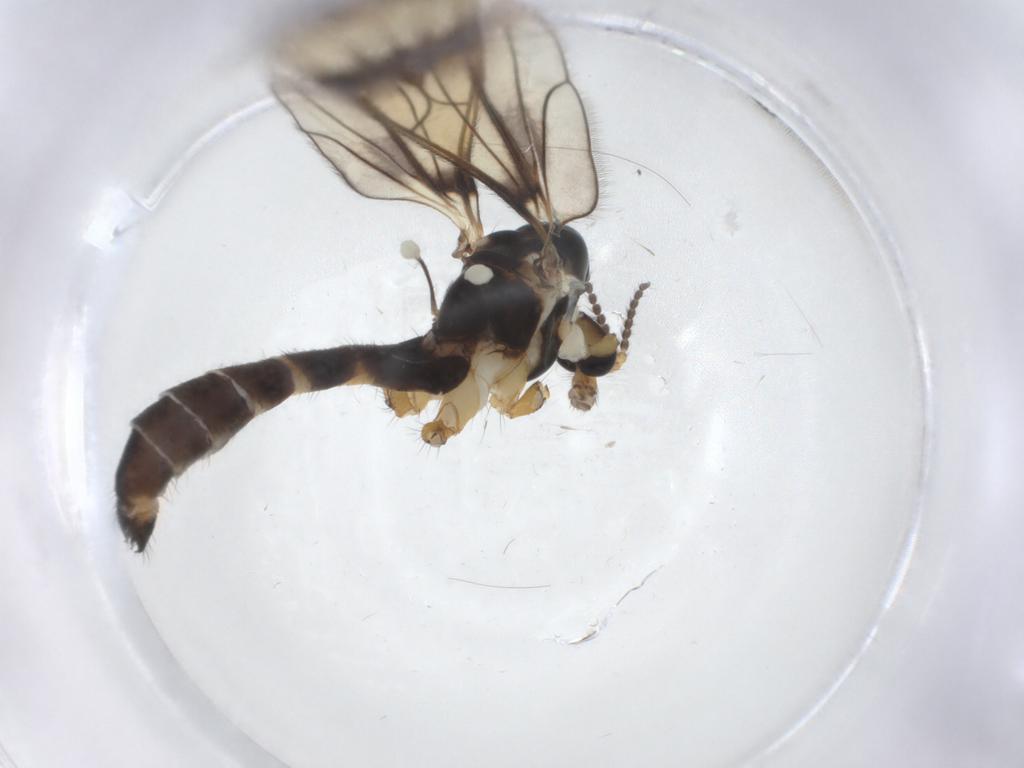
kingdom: Animalia
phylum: Arthropoda
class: Insecta
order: Diptera
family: Limoniidae
